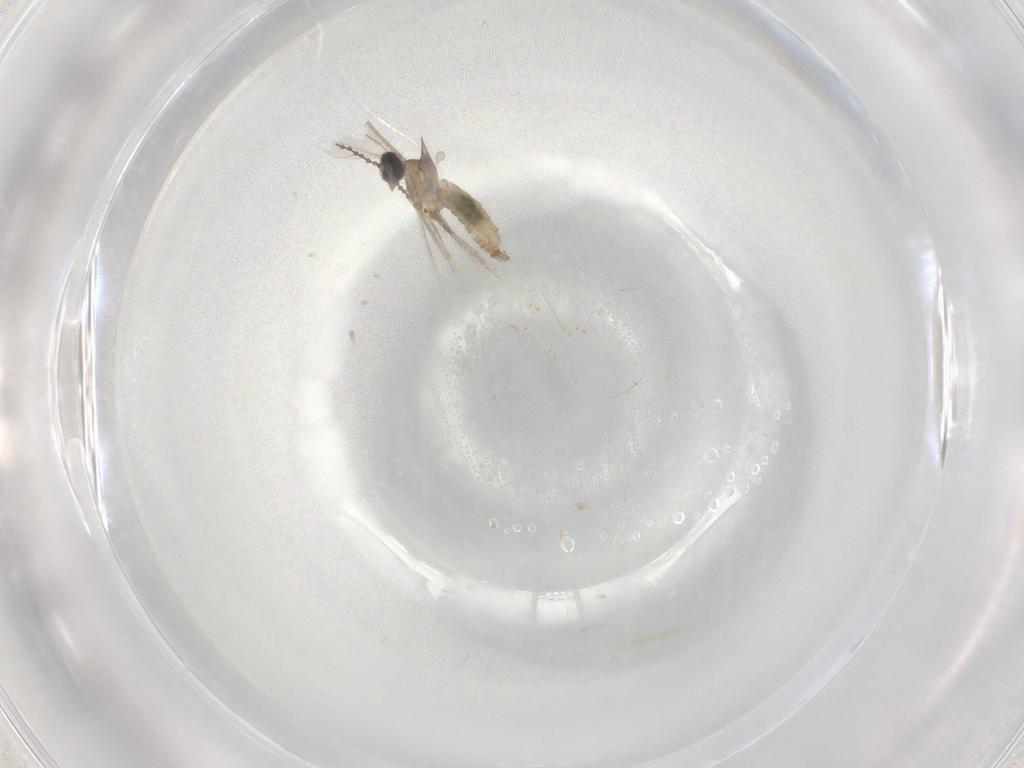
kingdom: Animalia
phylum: Arthropoda
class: Insecta
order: Diptera
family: Cecidomyiidae
